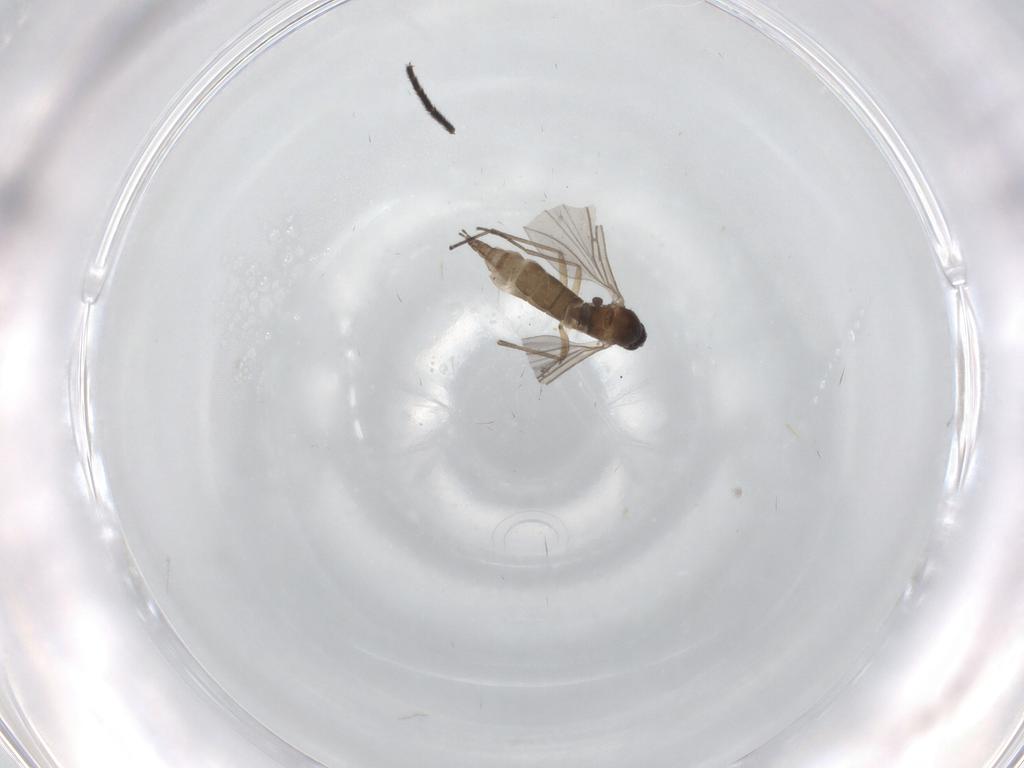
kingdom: Animalia
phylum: Arthropoda
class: Insecta
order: Diptera
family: Sciaridae
